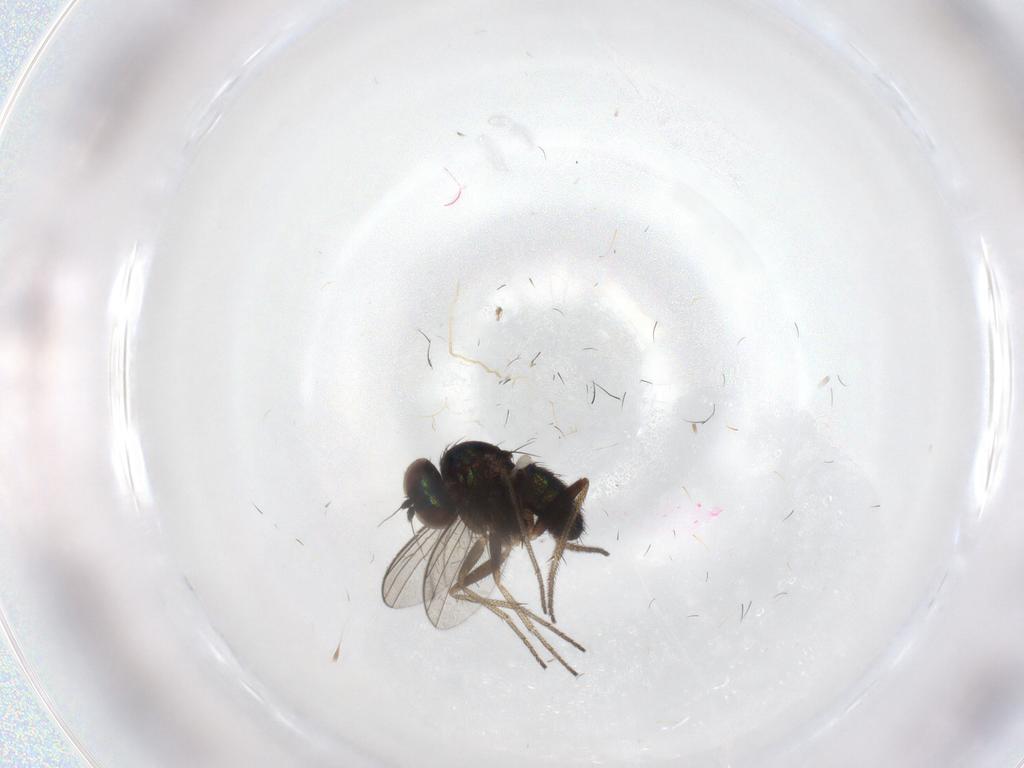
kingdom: Animalia
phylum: Arthropoda
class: Insecta
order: Diptera
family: Dolichopodidae
